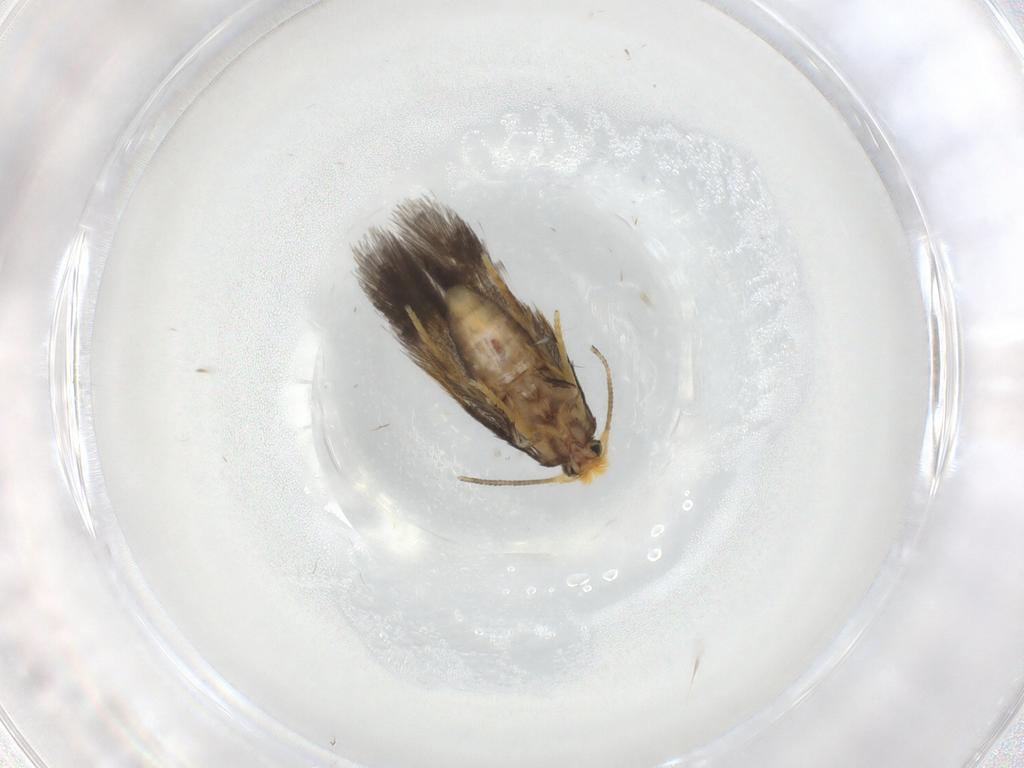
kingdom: Animalia
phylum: Arthropoda
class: Insecta
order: Lepidoptera
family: Nepticulidae
